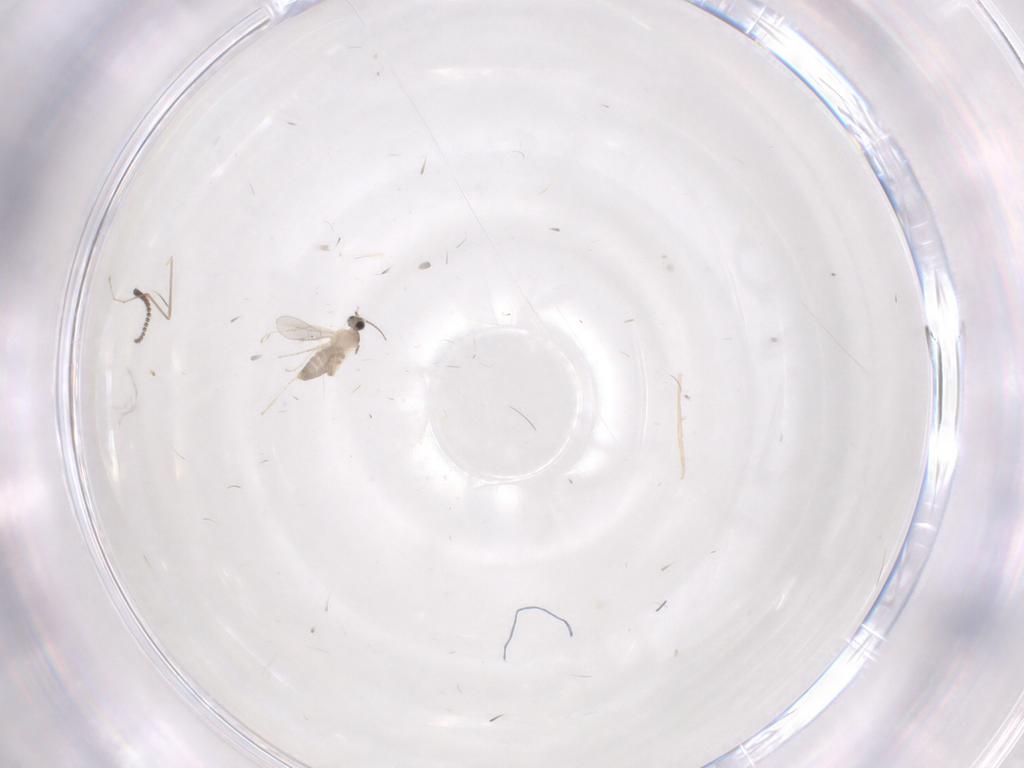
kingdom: Animalia
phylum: Arthropoda
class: Insecta
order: Diptera
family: Cecidomyiidae
